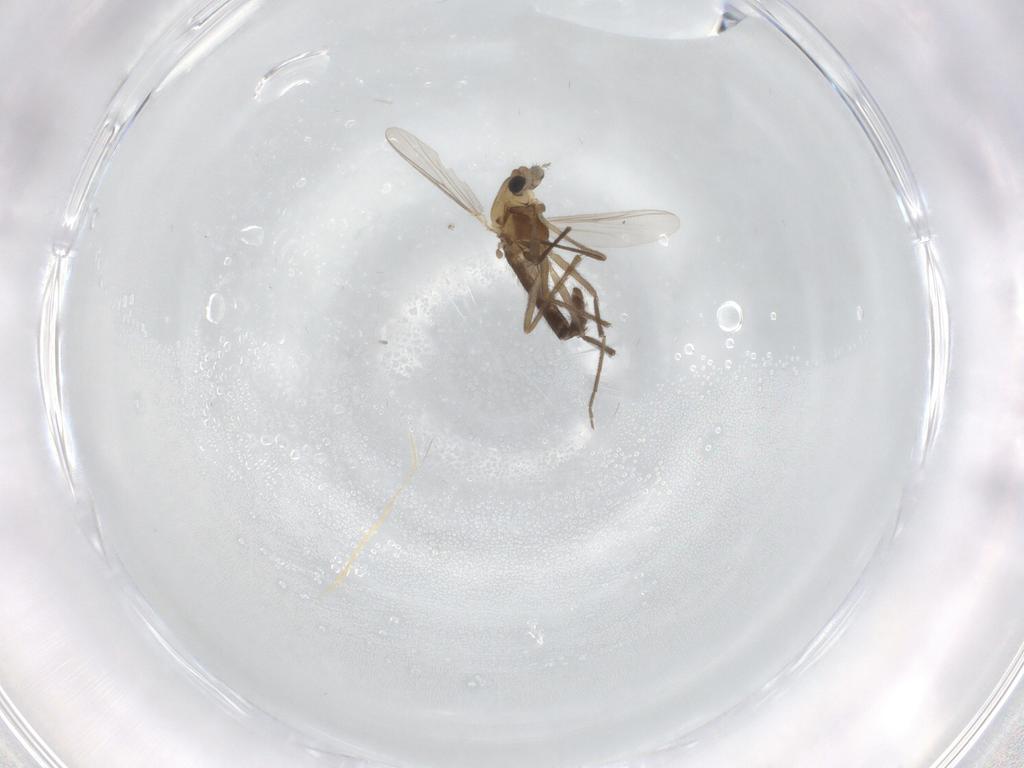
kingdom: Animalia
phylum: Arthropoda
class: Insecta
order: Diptera
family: Chironomidae
